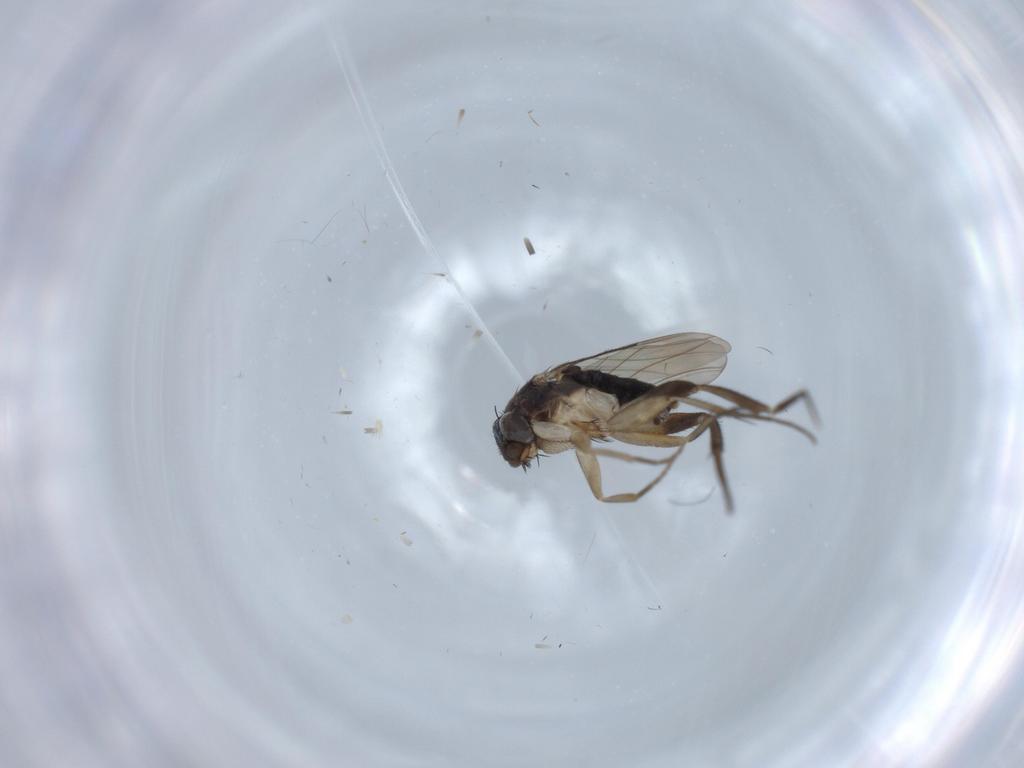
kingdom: Animalia
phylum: Arthropoda
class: Insecta
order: Diptera
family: Phoridae
